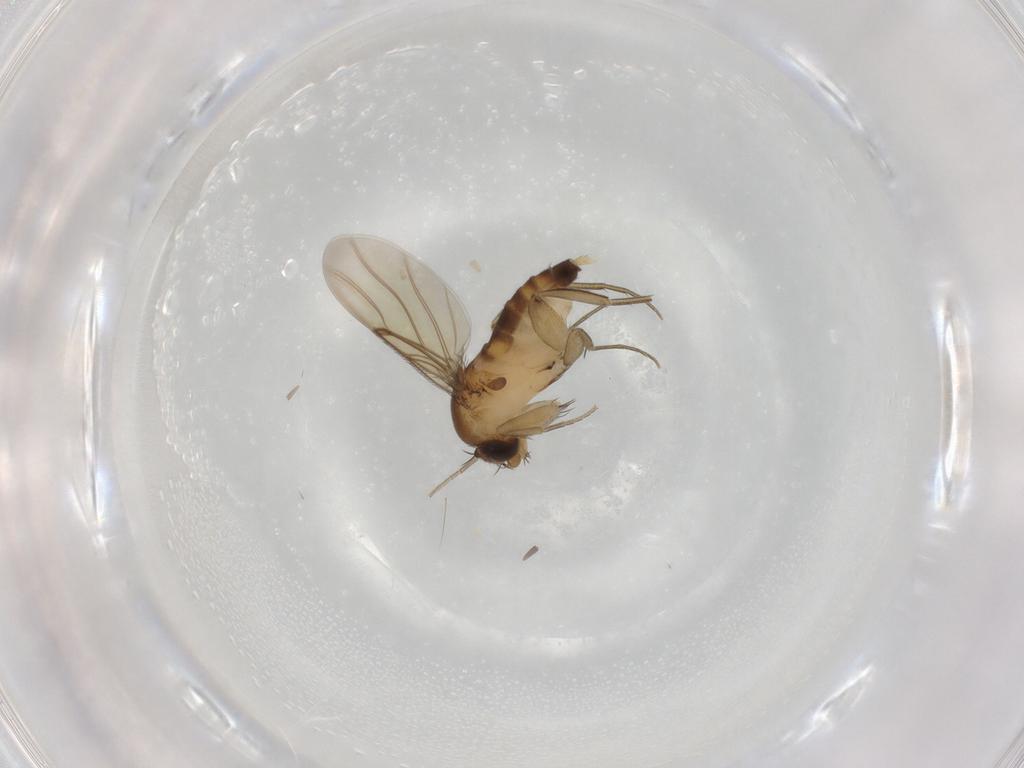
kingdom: Animalia
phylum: Arthropoda
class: Insecta
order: Diptera
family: Phoridae
